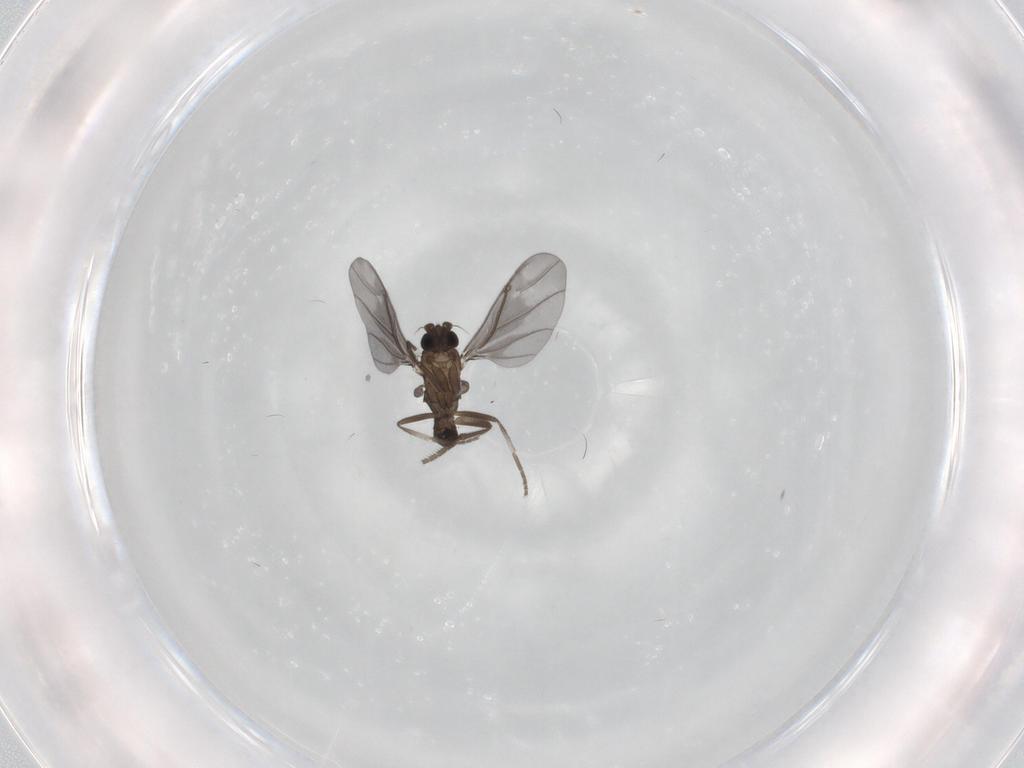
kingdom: Animalia
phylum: Arthropoda
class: Insecta
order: Diptera
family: Phoridae
